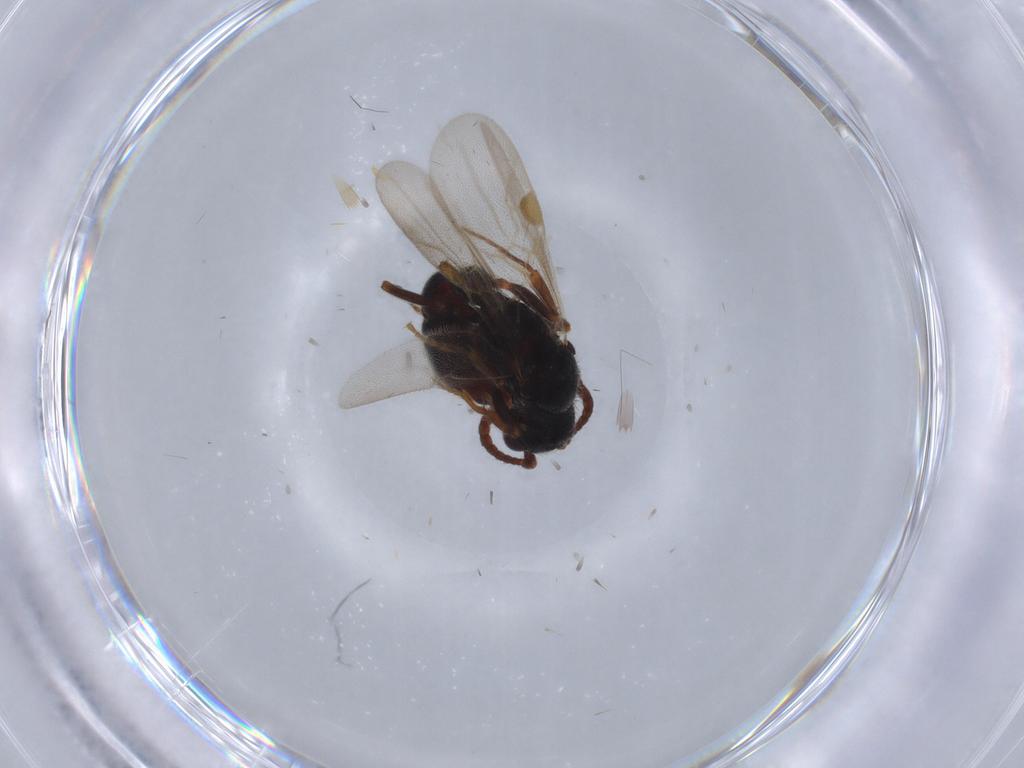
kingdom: Animalia
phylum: Arthropoda
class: Insecta
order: Hymenoptera
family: Formicidae
